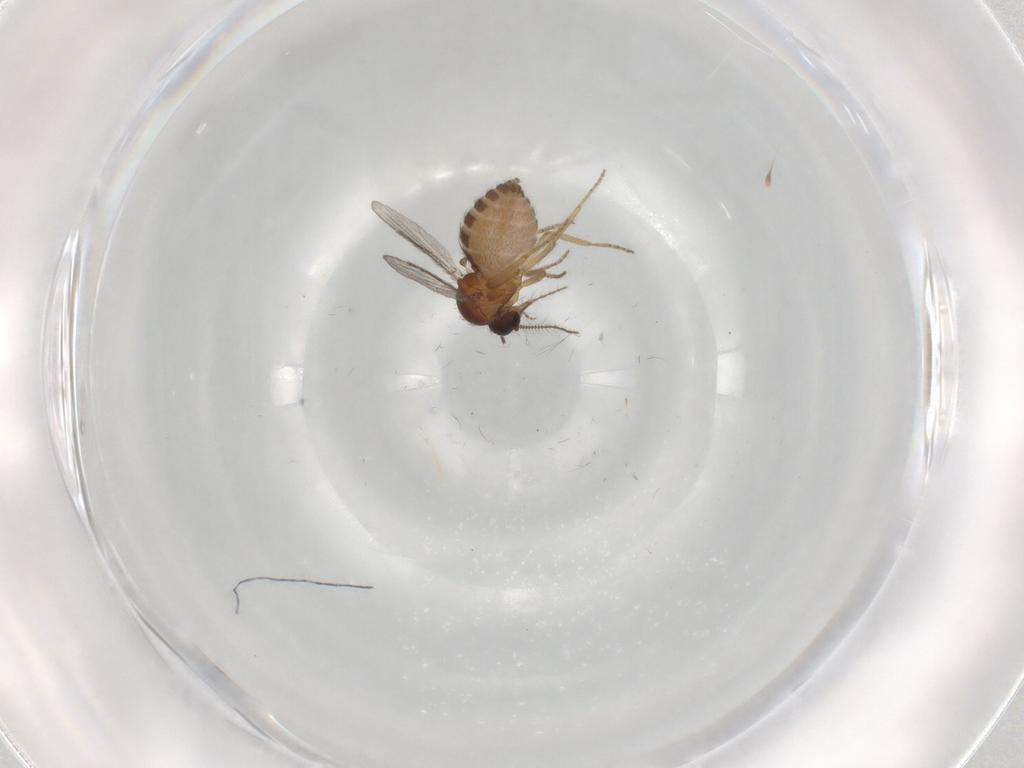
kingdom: Animalia
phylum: Arthropoda
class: Insecta
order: Diptera
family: Ceratopogonidae
